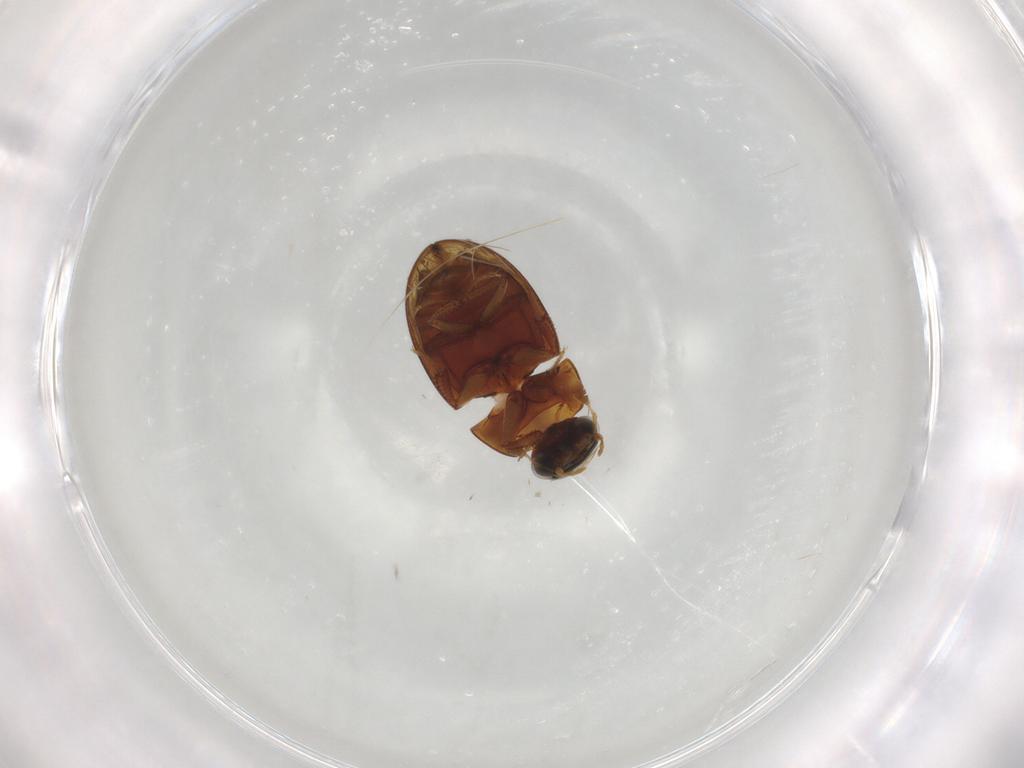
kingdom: Animalia
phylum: Arthropoda
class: Insecta
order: Coleoptera
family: Hydrophilidae
